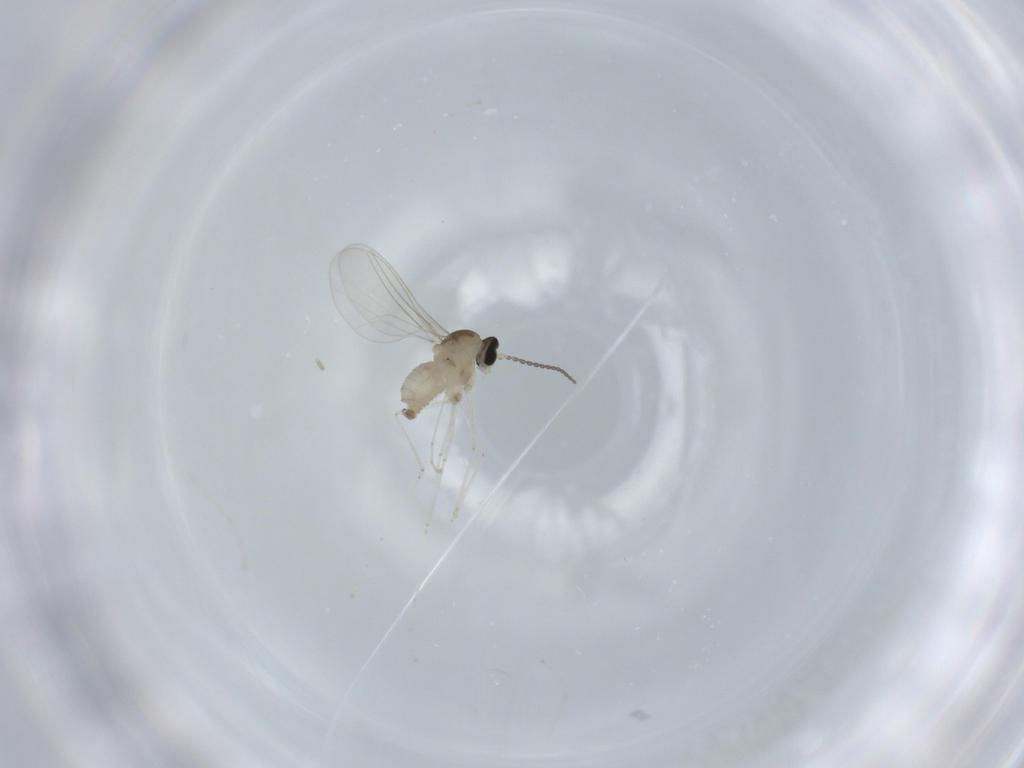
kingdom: Animalia
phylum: Arthropoda
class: Insecta
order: Diptera
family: Cecidomyiidae
